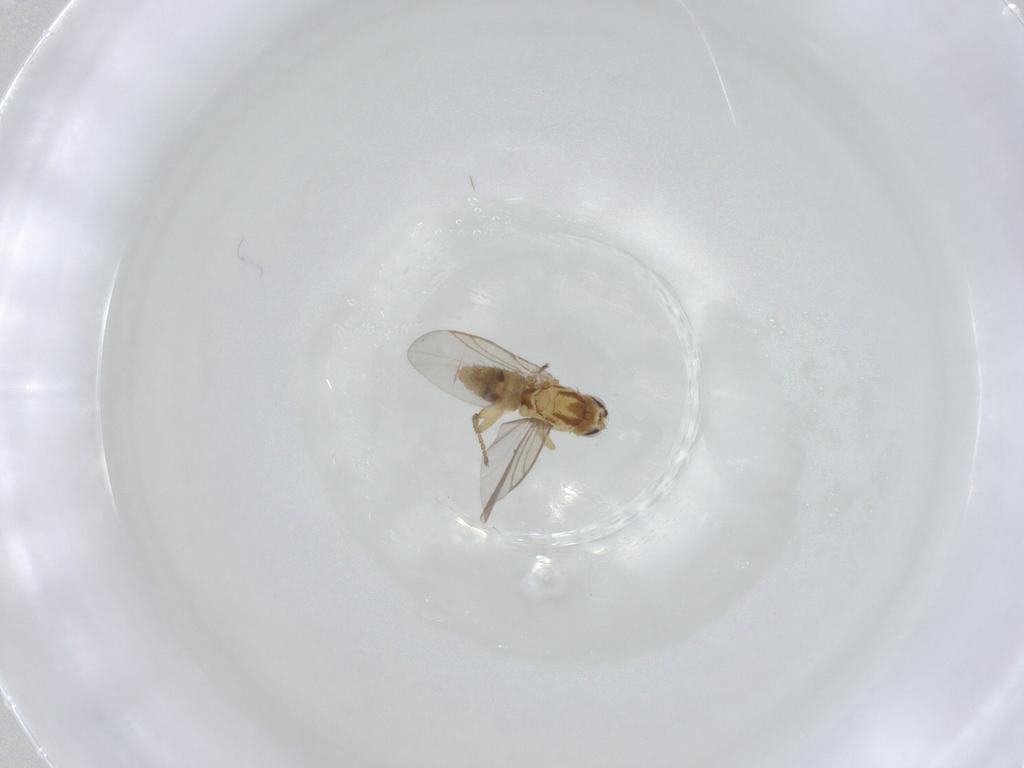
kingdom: Animalia
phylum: Arthropoda
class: Insecta
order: Diptera
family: Agromyzidae
